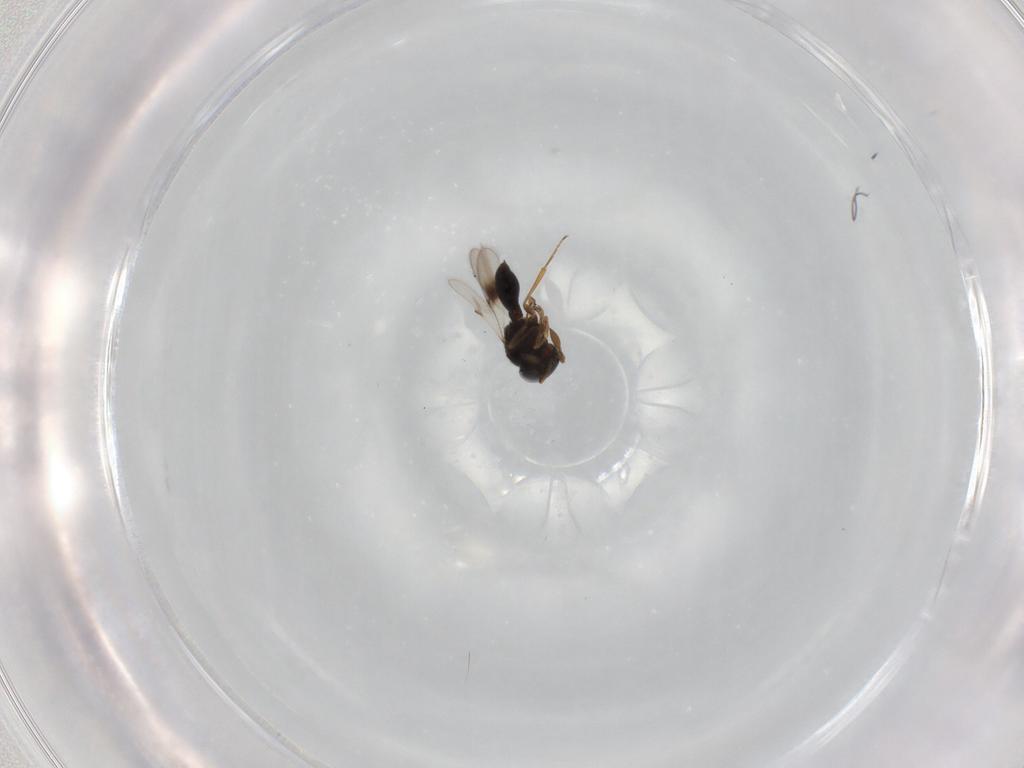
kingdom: Animalia
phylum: Arthropoda
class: Insecta
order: Hymenoptera
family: Scelionidae
